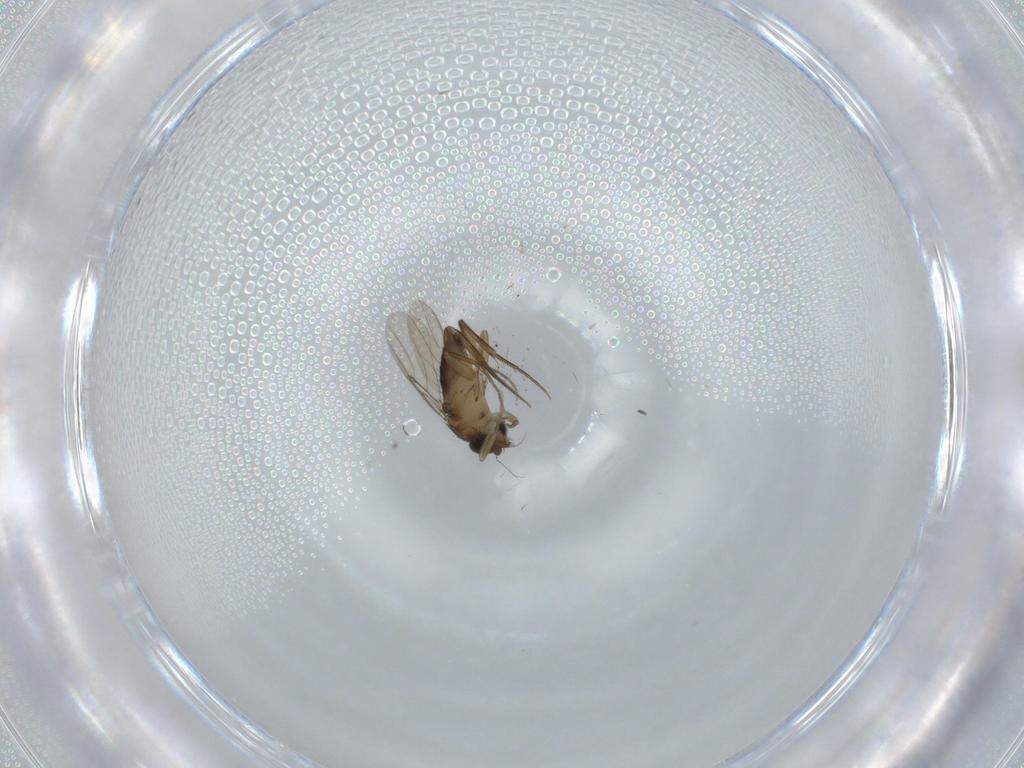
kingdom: Animalia
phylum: Arthropoda
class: Insecta
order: Diptera
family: Phoridae
